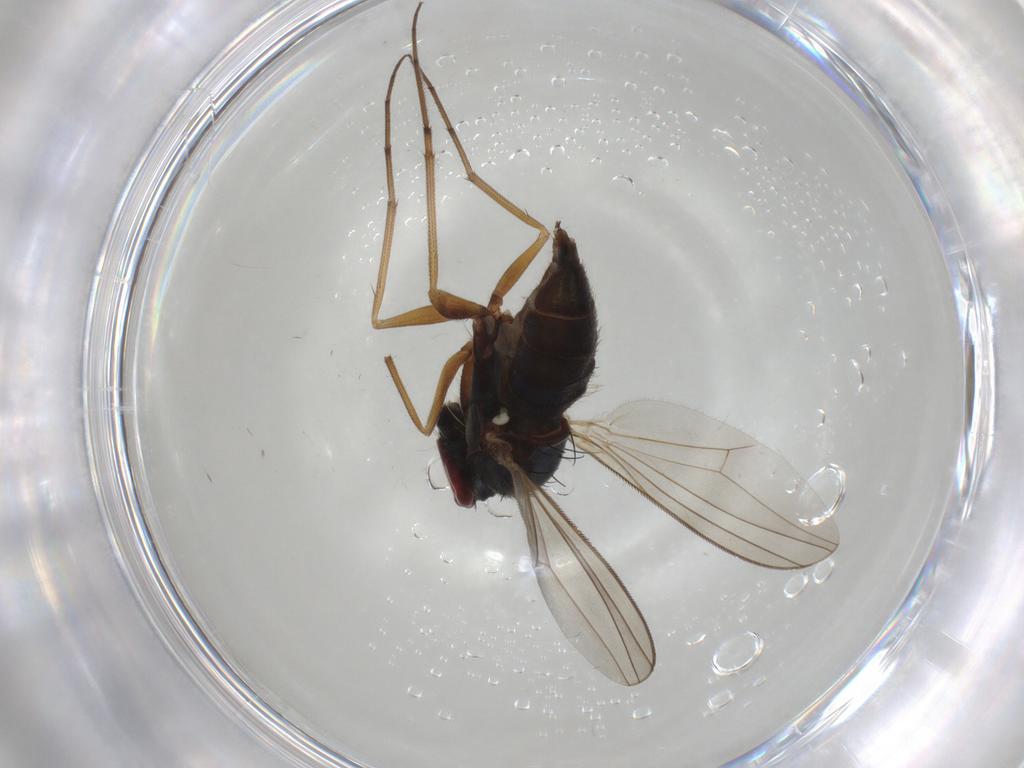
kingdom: Animalia
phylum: Arthropoda
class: Insecta
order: Diptera
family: Dolichopodidae
